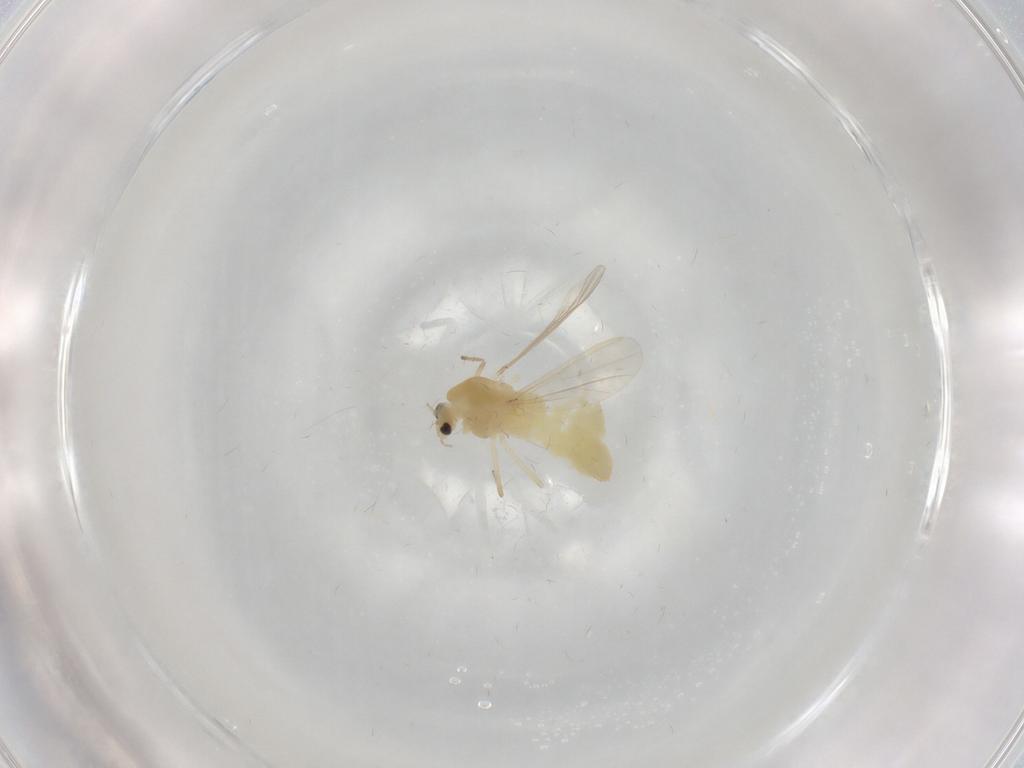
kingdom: Animalia
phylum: Arthropoda
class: Insecta
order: Diptera
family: Chironomidae
